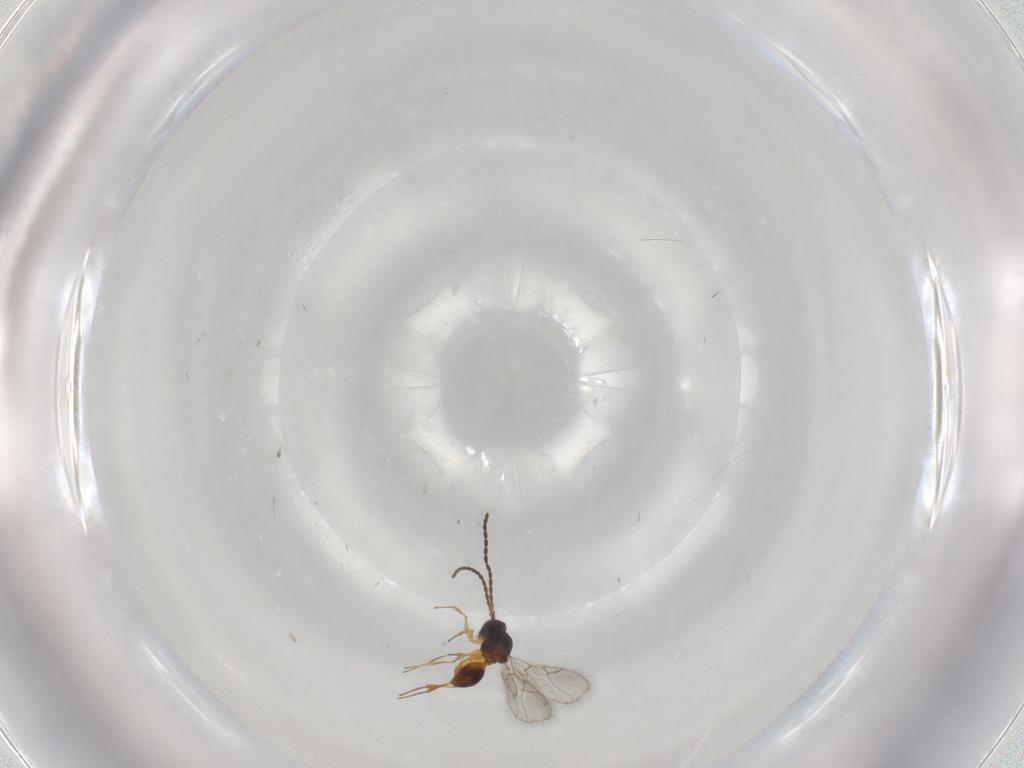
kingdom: Animalia
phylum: Arthropoda
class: Insecta
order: Hymenoptera
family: Figitidae
